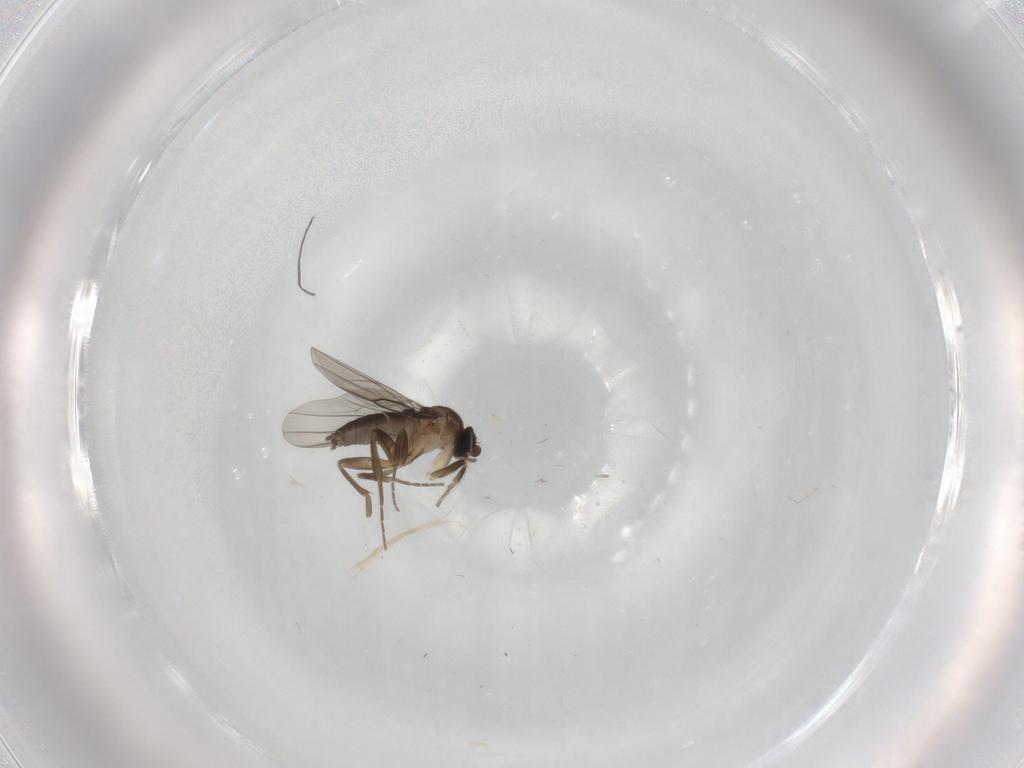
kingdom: Animalia
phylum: Arthropoda
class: Insecta
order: Diptera
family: Phoridae
